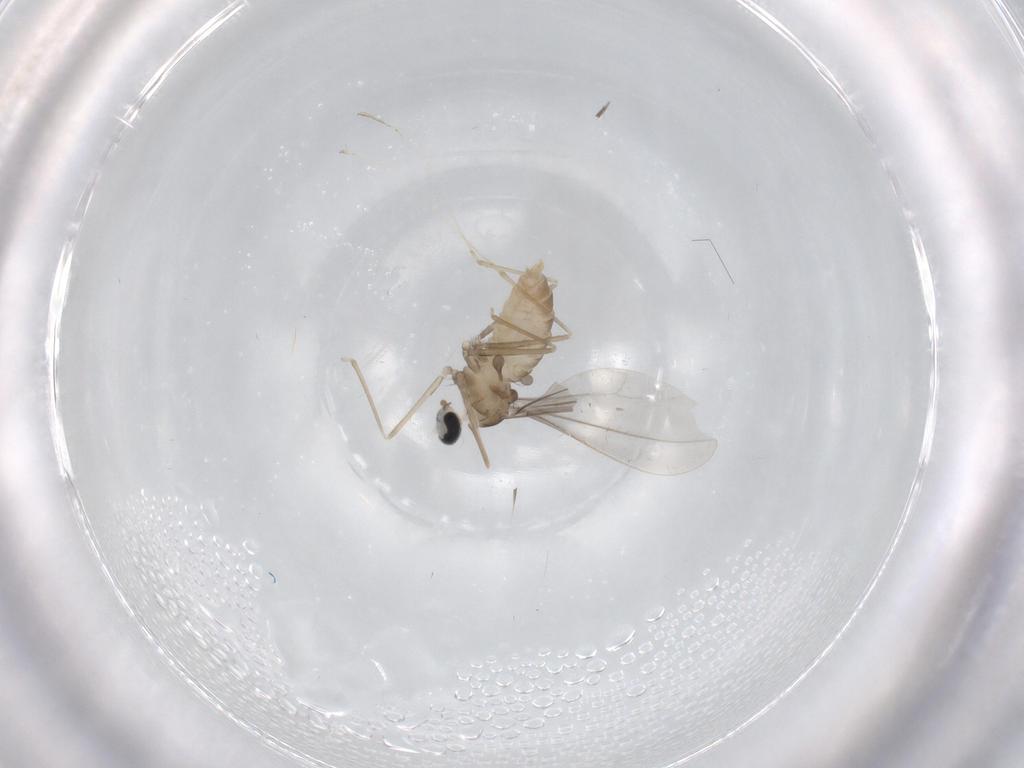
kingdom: Animalia
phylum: Arthropoda
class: Insecta
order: Diptera
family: Cecidomyiidae
